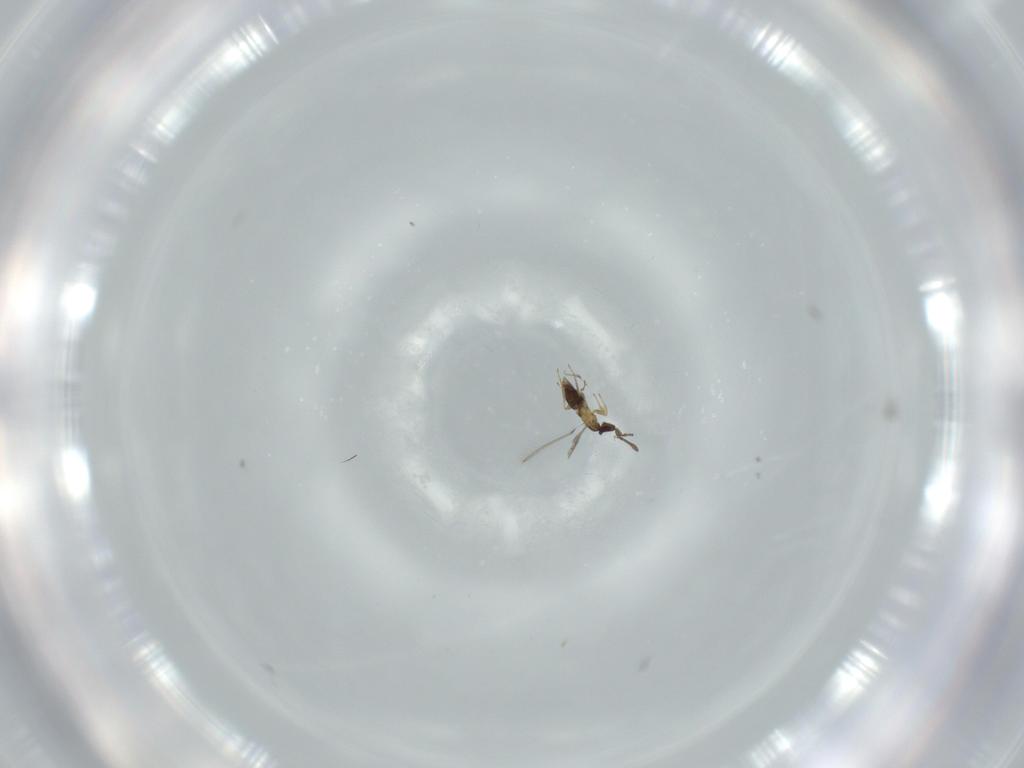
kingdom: Animalia
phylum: Arthropoda
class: Insecta
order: Hymenoptera
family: Mymaridae
